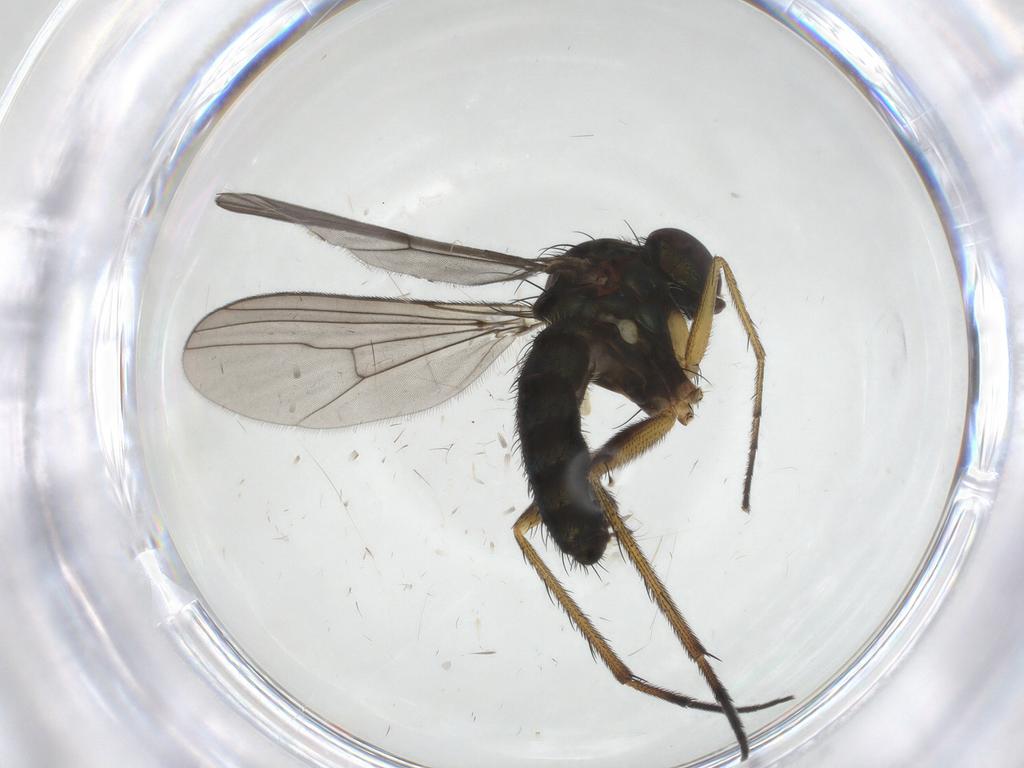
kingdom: Animalia
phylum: Arthropoda
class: Insecta
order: Diptera
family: Dolichopodidae
